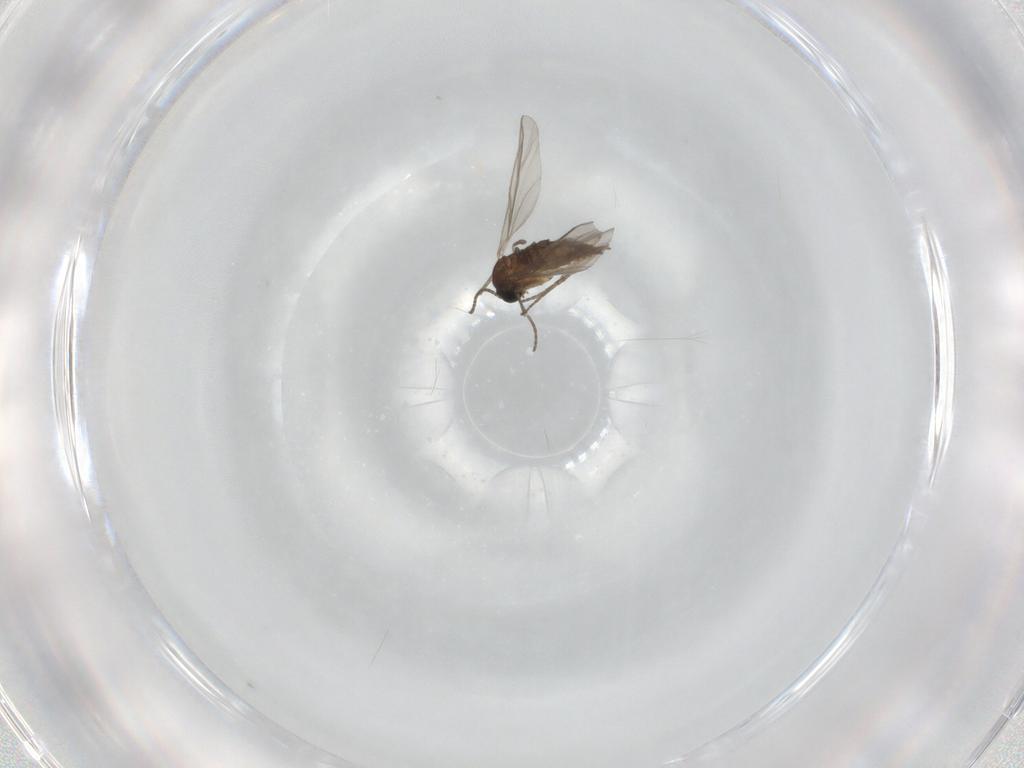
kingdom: Animalia
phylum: Arthropoda
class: Insecta
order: Diptera
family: Sciaridae
